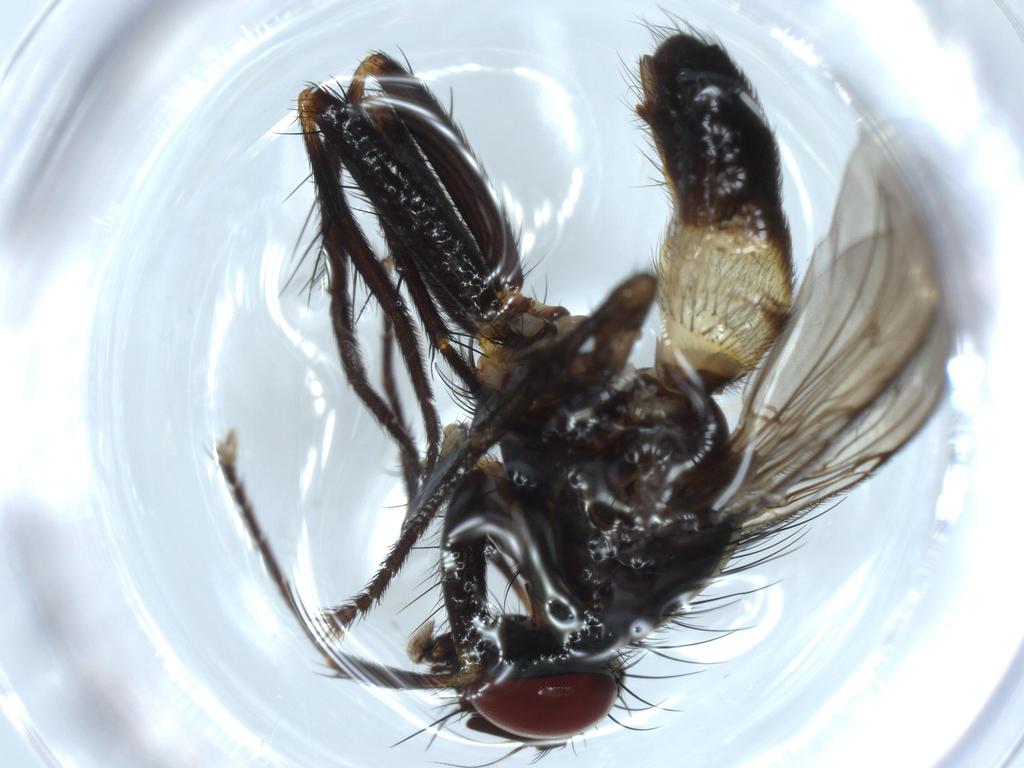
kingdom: Animalia
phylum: Arthropoda
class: Insecta
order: Diptera
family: Muscidae
